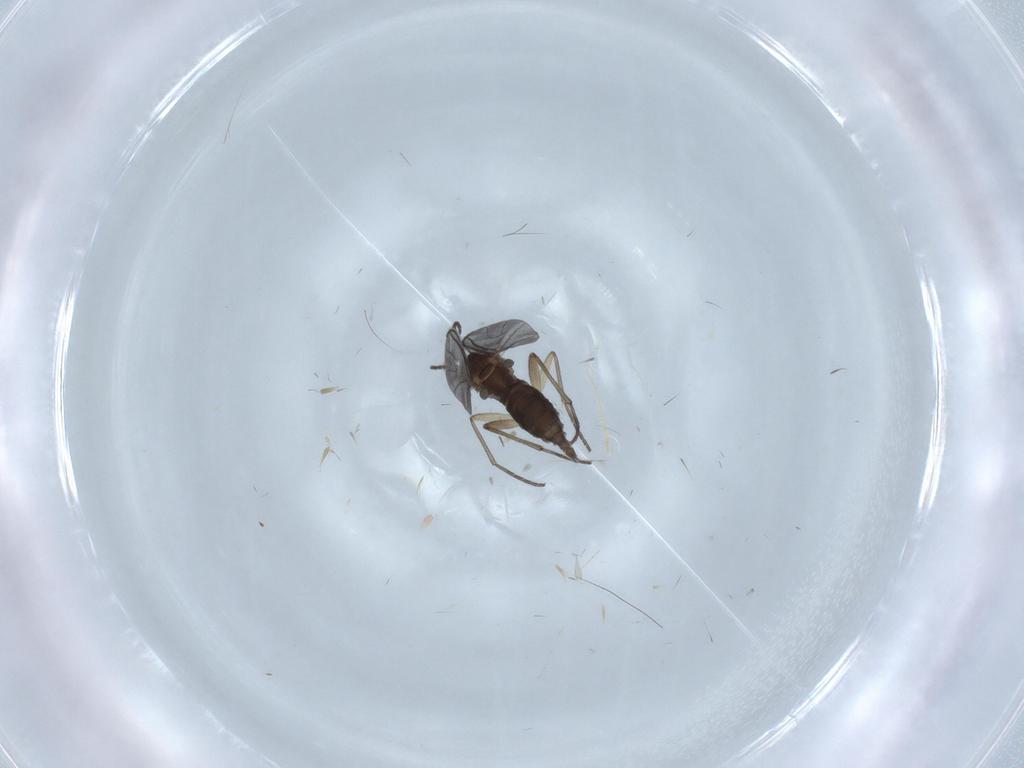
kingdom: Animalia
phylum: Arthropoda
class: Insecta
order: Diptera
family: Sciaridae
